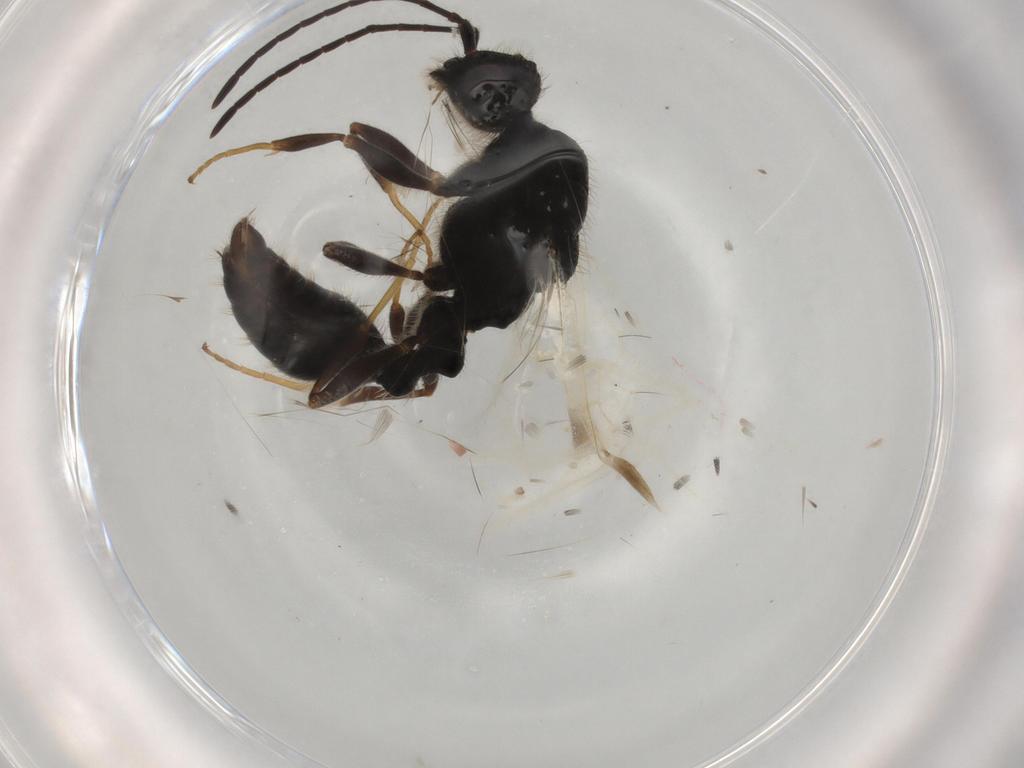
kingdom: Animalia
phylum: Arthropoda
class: Insecta
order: Hymenoptera
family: Formicidae
